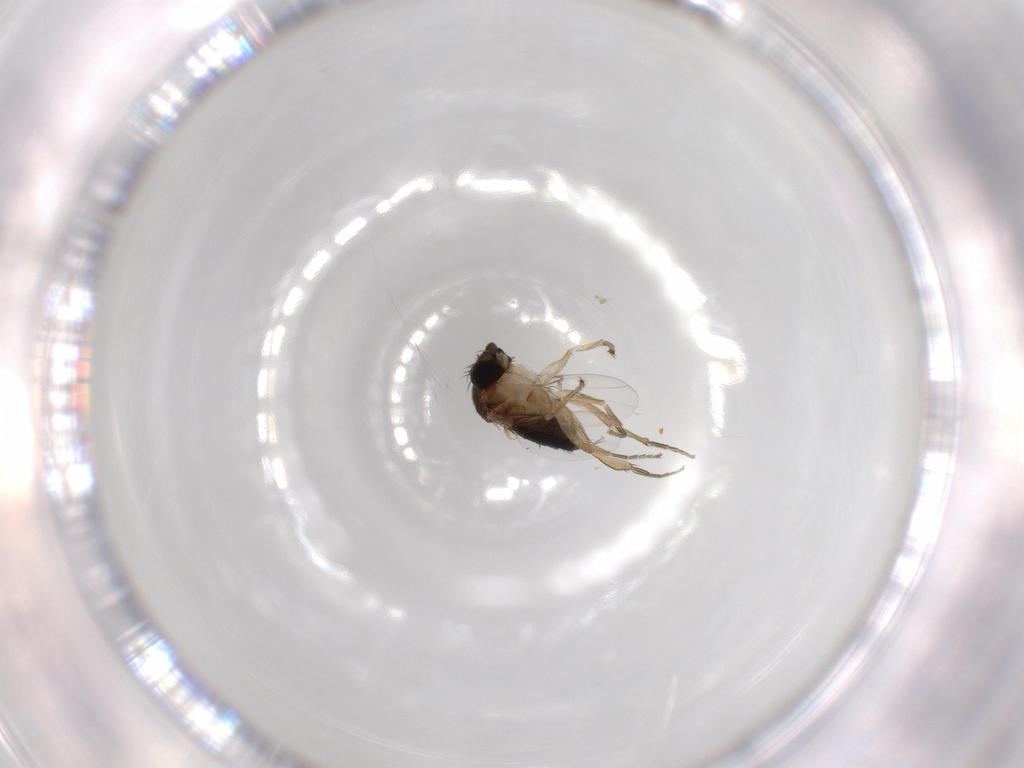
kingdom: Animalia
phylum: Arthropoda
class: Insecta
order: Diptera
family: Phoridae
